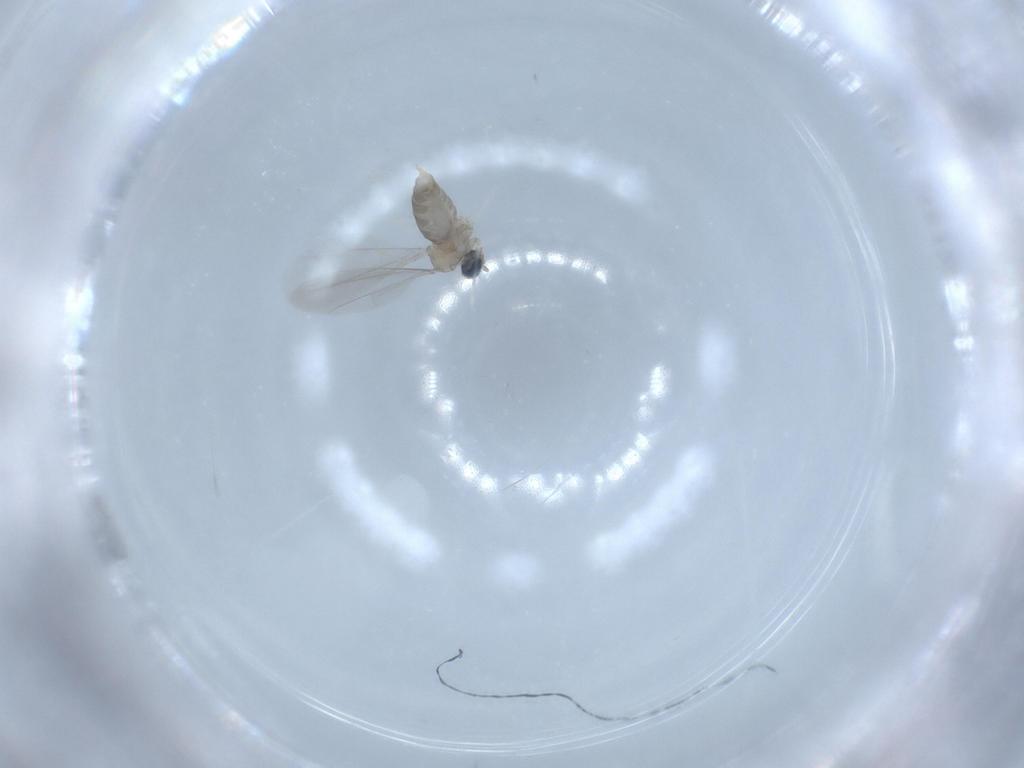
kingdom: Animalia
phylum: Arthropoda
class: Insecta
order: Diptera
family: Cecidomyiidae
